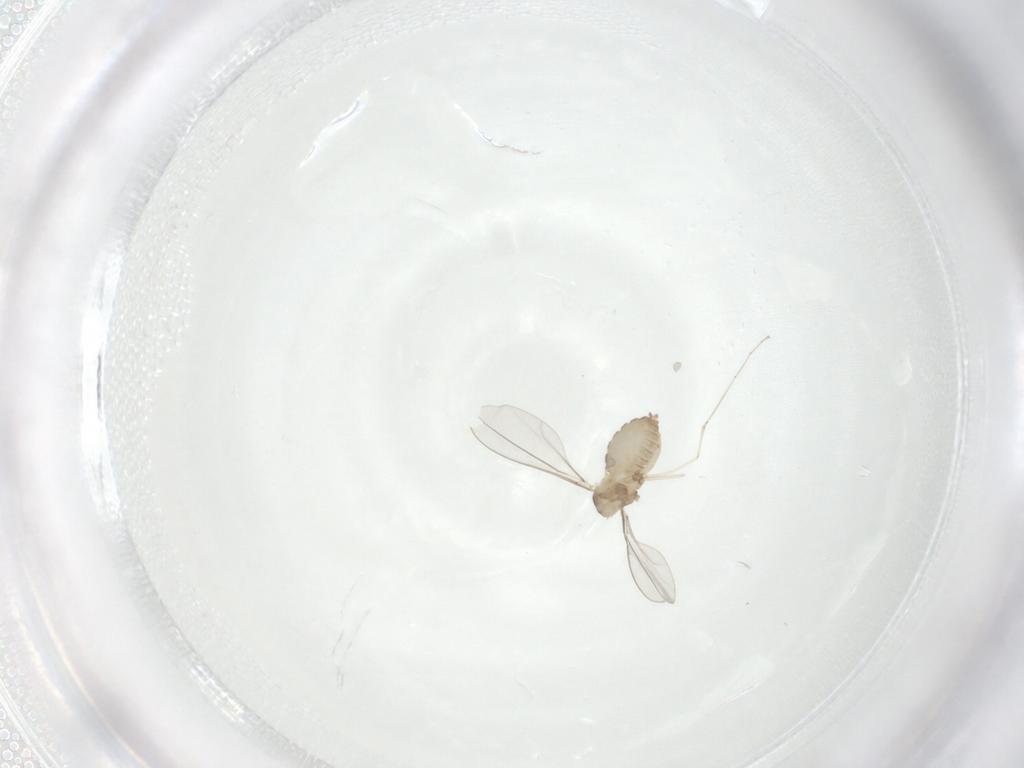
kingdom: Animalia
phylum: Arthropoda
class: Insecta
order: Diptera
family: Cecidomyiidae
